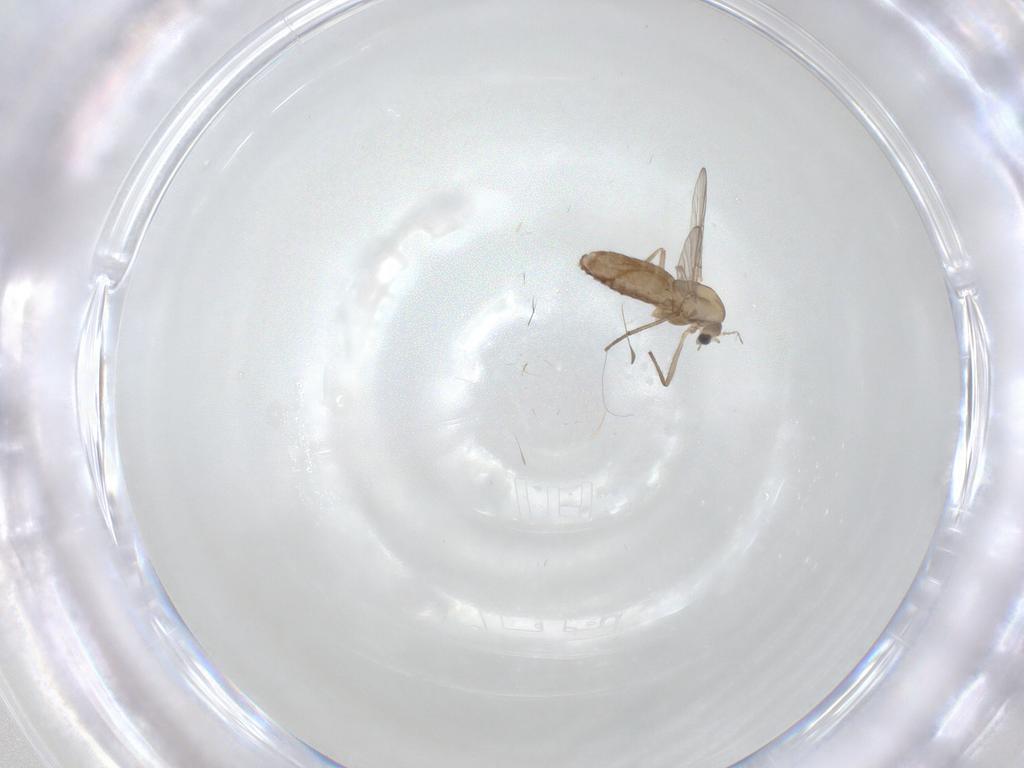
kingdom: Animalia
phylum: Arthropoda
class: Insecta
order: Diptera
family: Chironomidae
